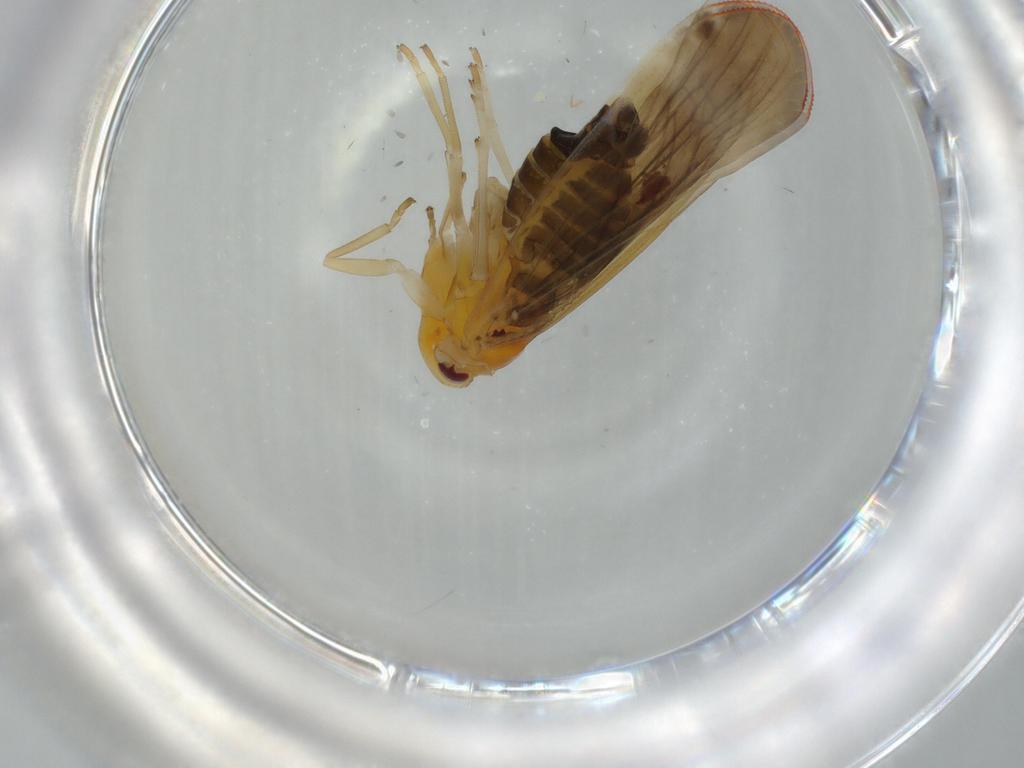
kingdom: Animalia
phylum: Arthropoda
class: Insecta
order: Hemiptera
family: Derbidae
